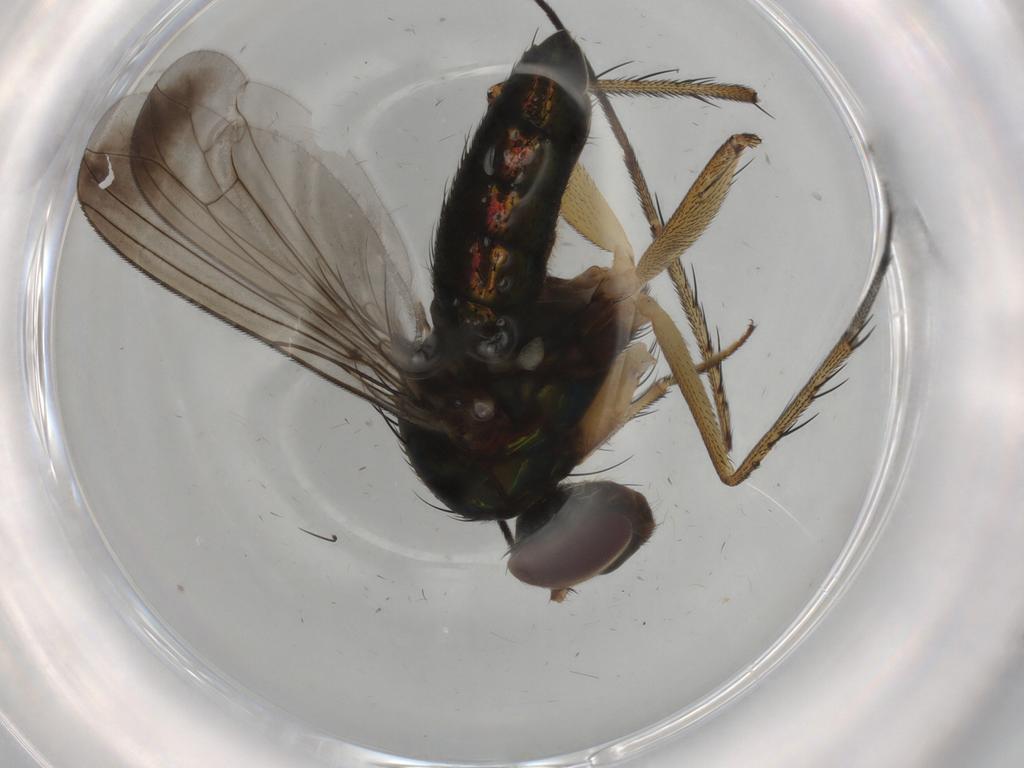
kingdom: Animalia
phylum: Arthropoda
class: Insecta
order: Diptera
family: Dolichopodidae
